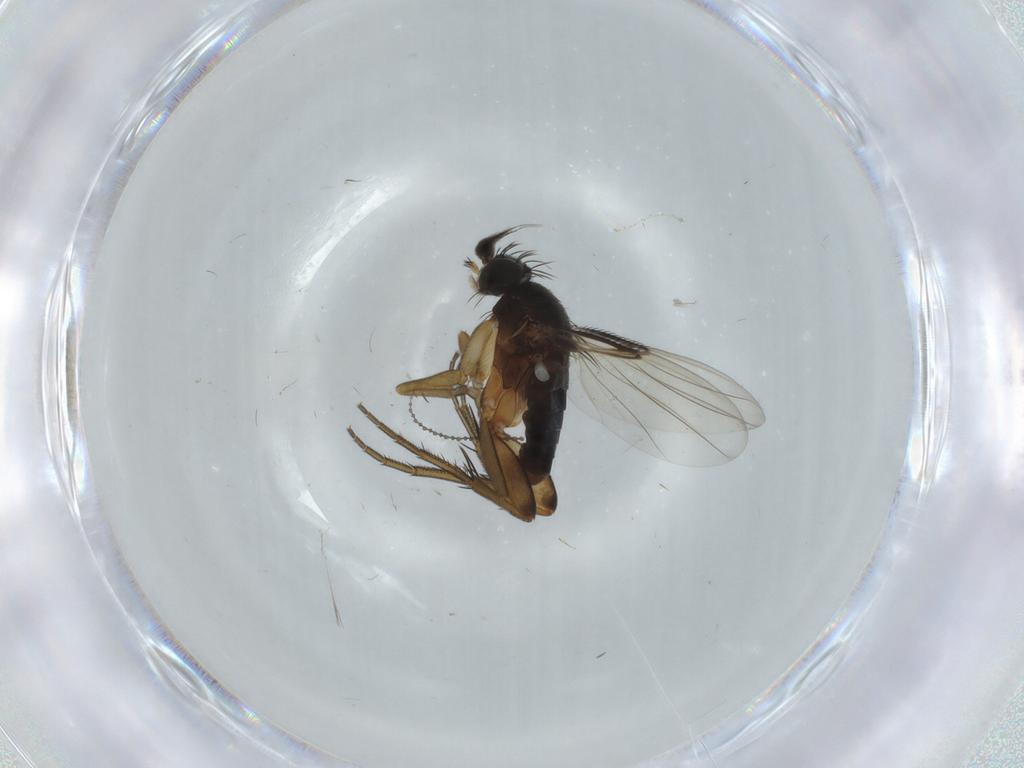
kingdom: Animalia
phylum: Arthropoda
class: Insecta
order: Diptera
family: Phoridae
